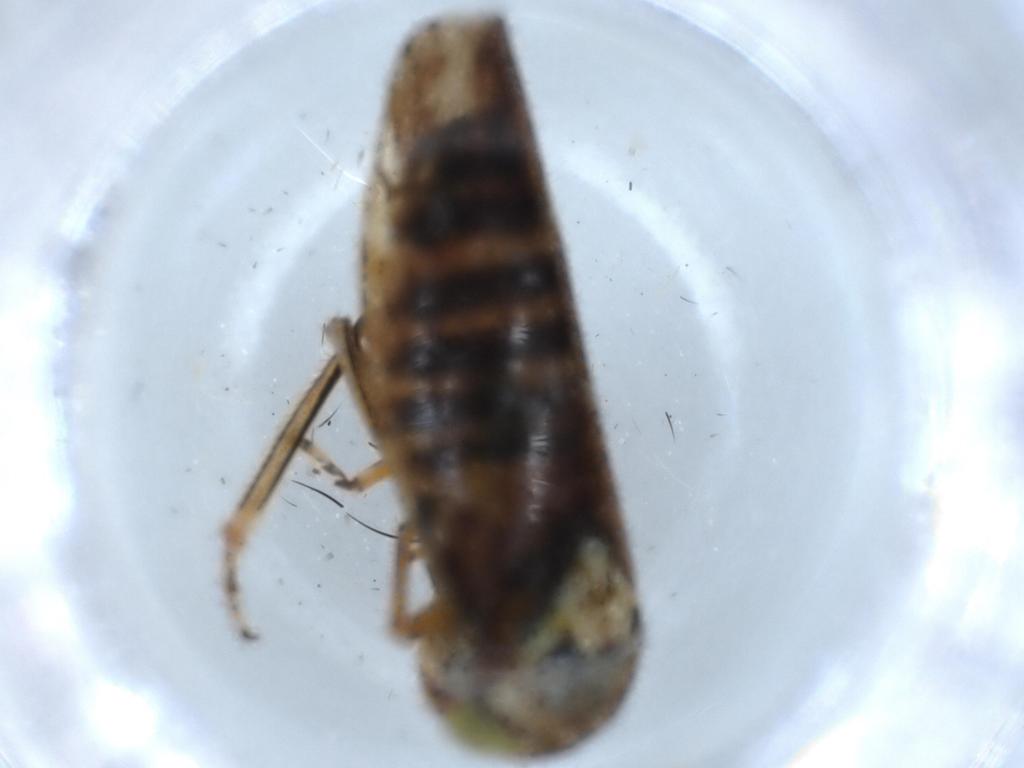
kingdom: Animalia
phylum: Arthropoda
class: Insecta
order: Hemiptera
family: Cicadellidae
